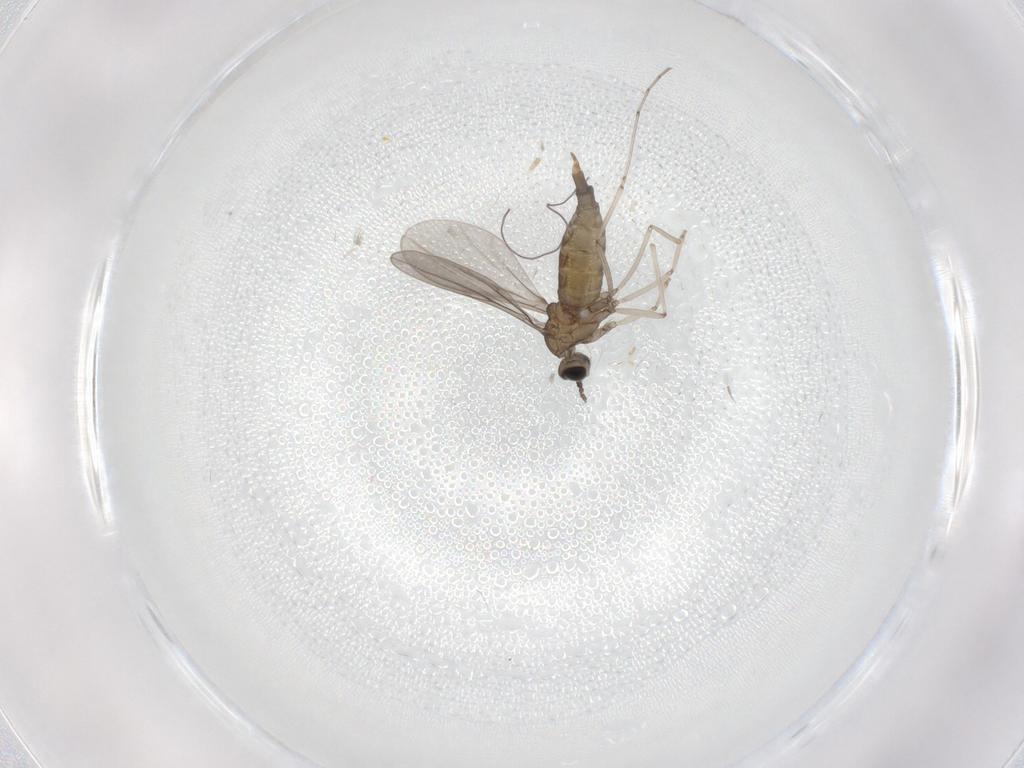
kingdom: Animalia
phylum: Arthropoda
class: Insecta
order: Diptera
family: Cecidomyiidae
